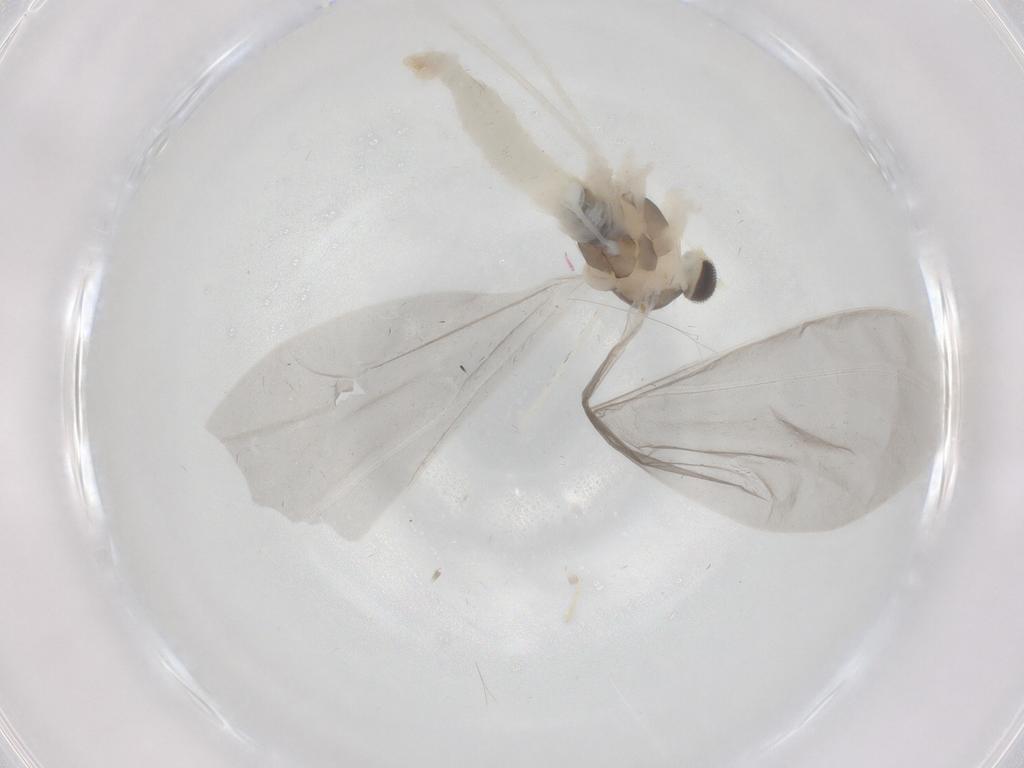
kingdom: Animalia
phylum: Arthropoda
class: Insecta
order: Diptera
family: Cecidomyiidae
